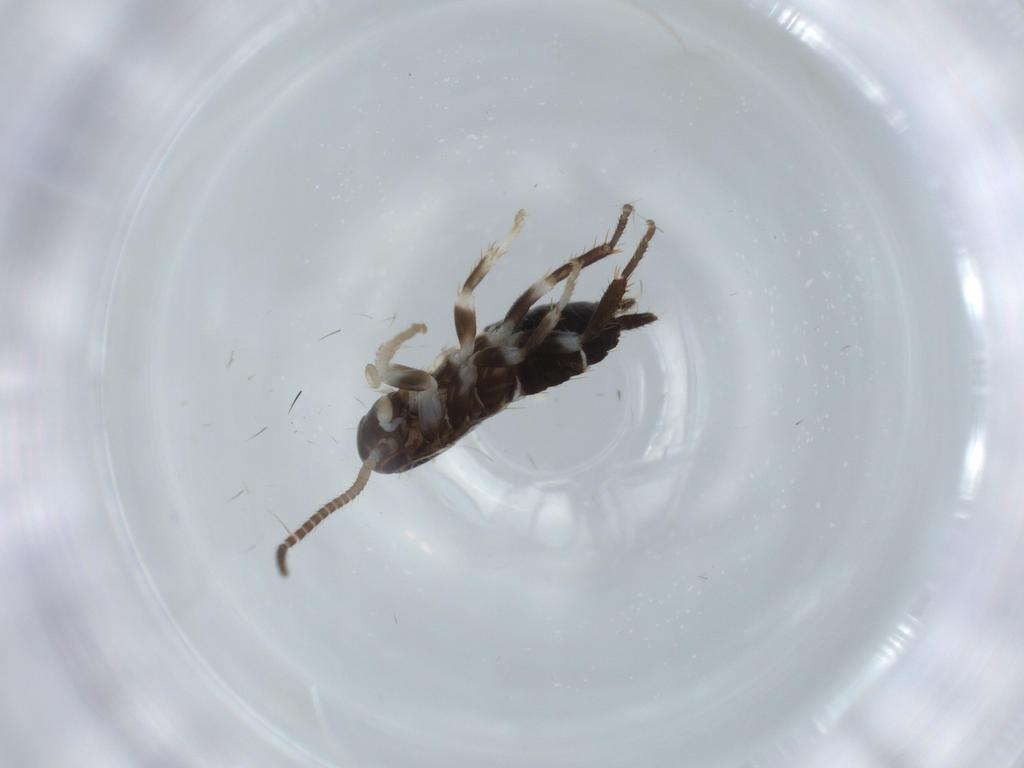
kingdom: Animalia
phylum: Arthropoda
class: Insecta
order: Blattodea
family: Ectobiidae
